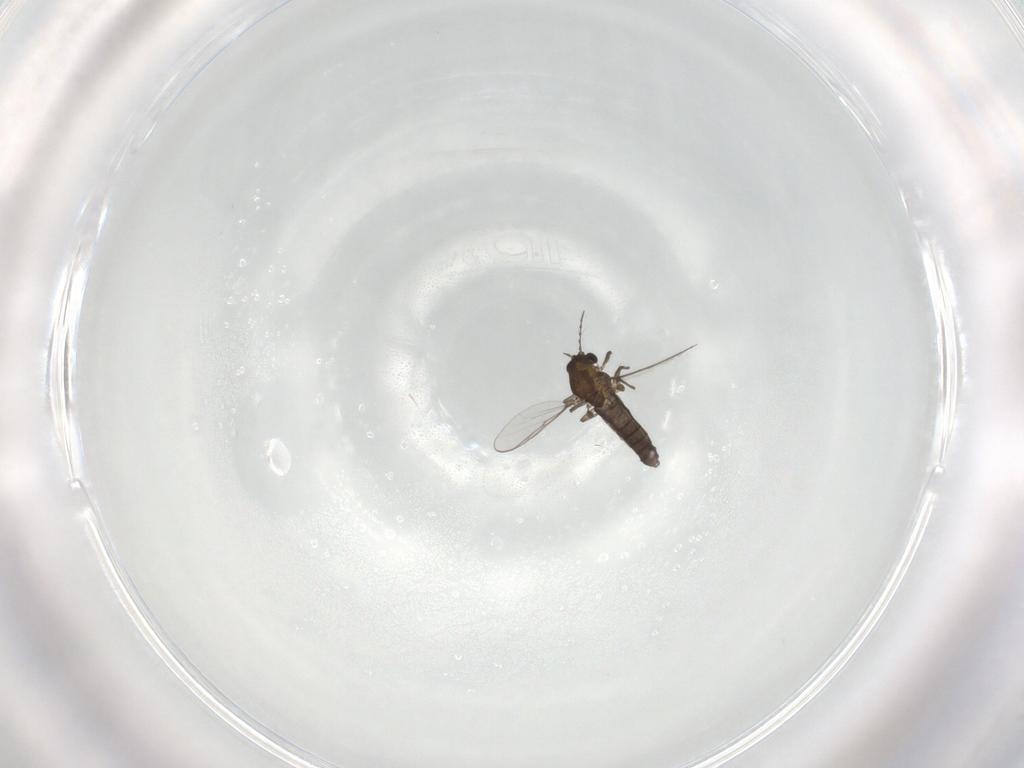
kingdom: Animalia
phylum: Arthropoda
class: Insecta
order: Diptera
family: Chironomidae
